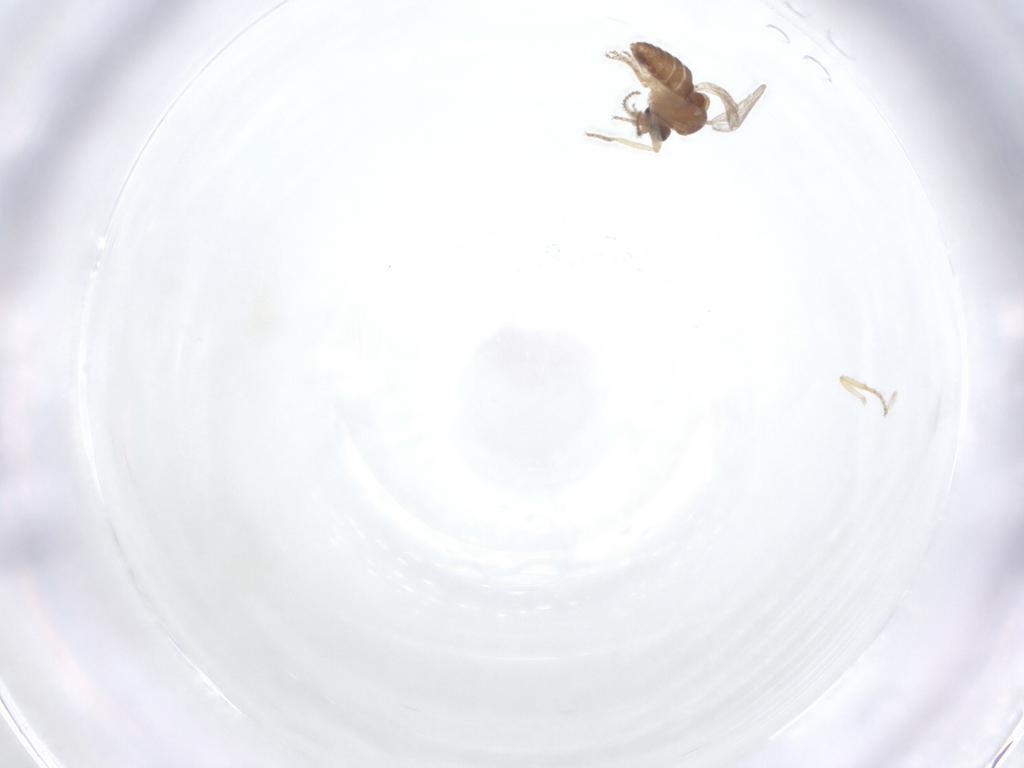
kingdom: Animalia
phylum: Arthropoda
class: Insecta
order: Diptera
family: Ceratopogonidae
